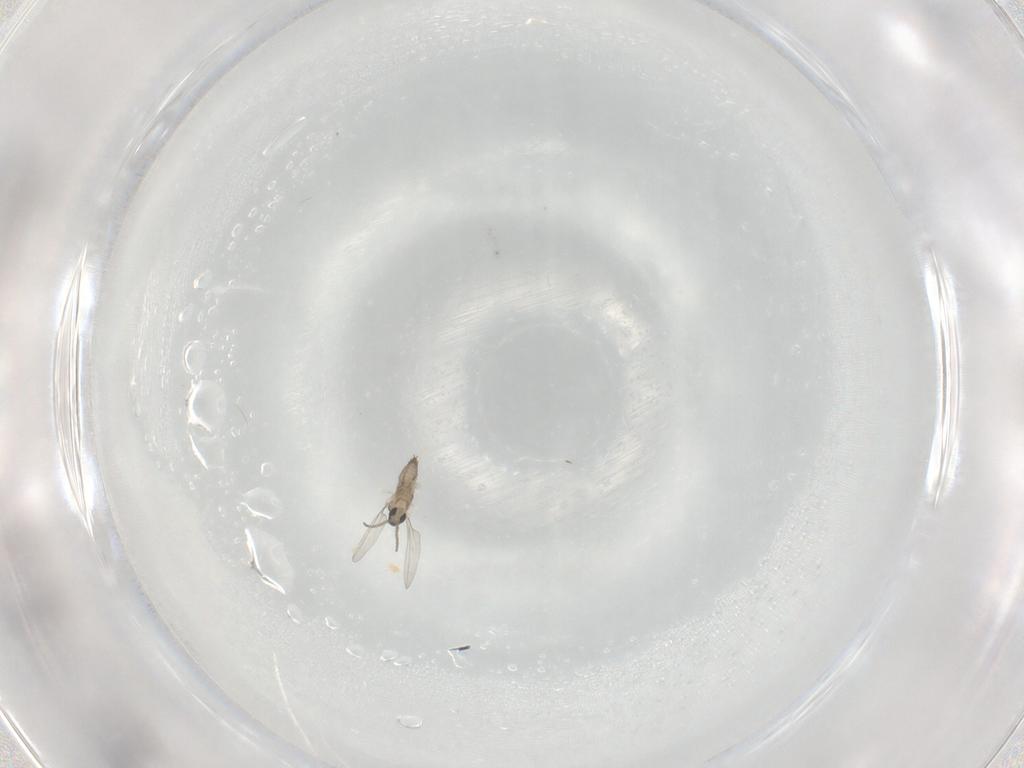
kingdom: Animalia
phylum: Arthropoda
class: Insecta
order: Diptera
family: Cecidomyiidae
